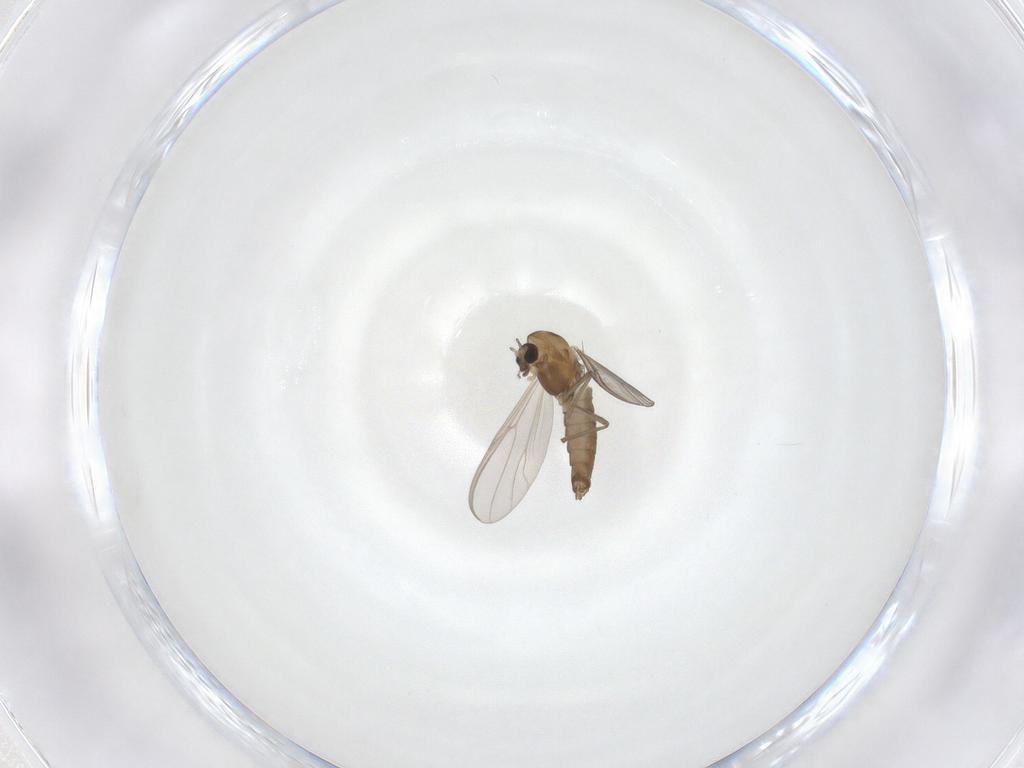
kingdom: Animalia
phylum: Arthropoda
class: Insecta
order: Diptera
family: Chironomidae
